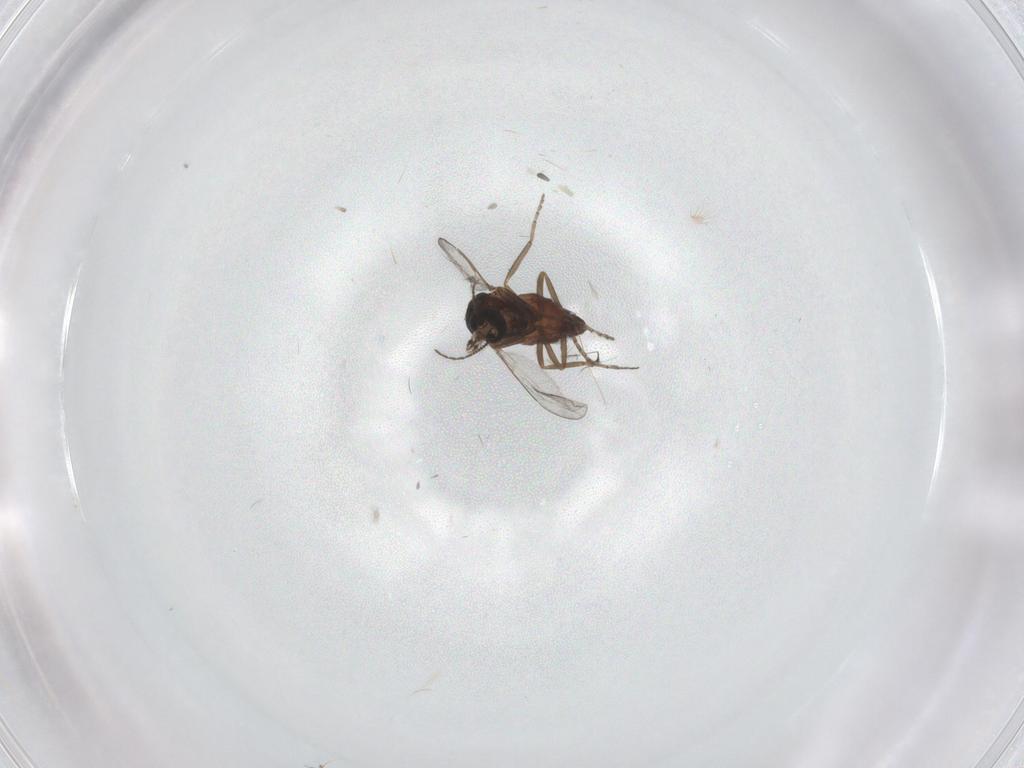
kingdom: Animalia
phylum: Arthropoda
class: Insecta
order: Diptera
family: Ceratopogonidae
